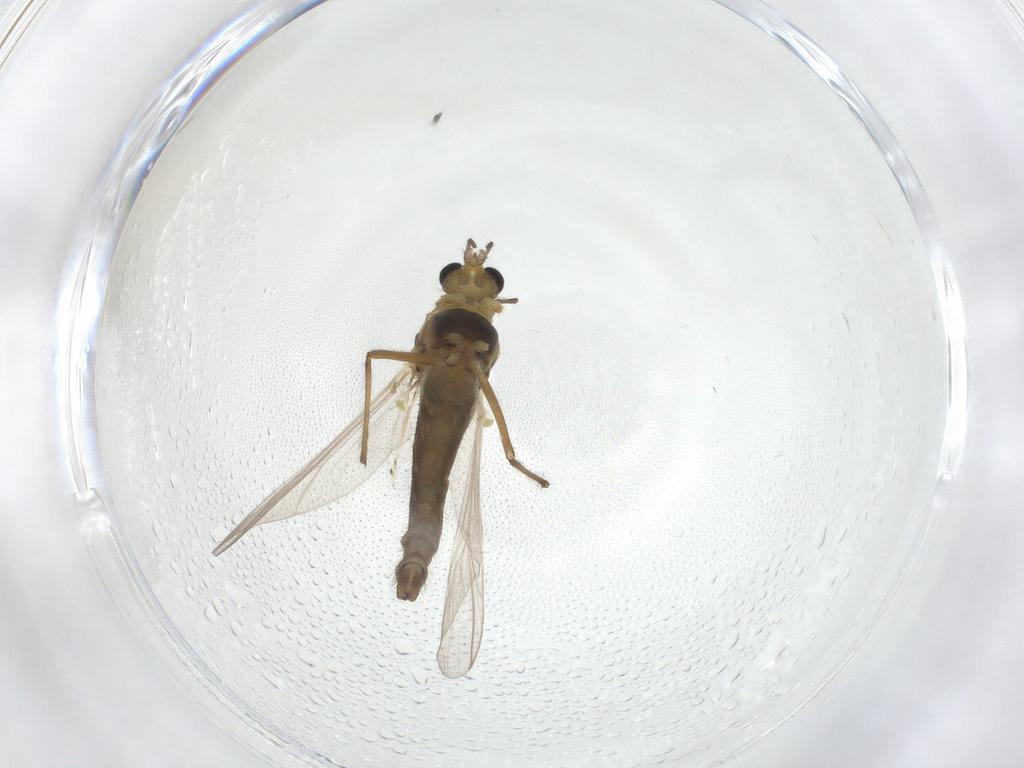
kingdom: Animalia
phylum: Arthropoda
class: Insecta
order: Diptera
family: Chironomidae
